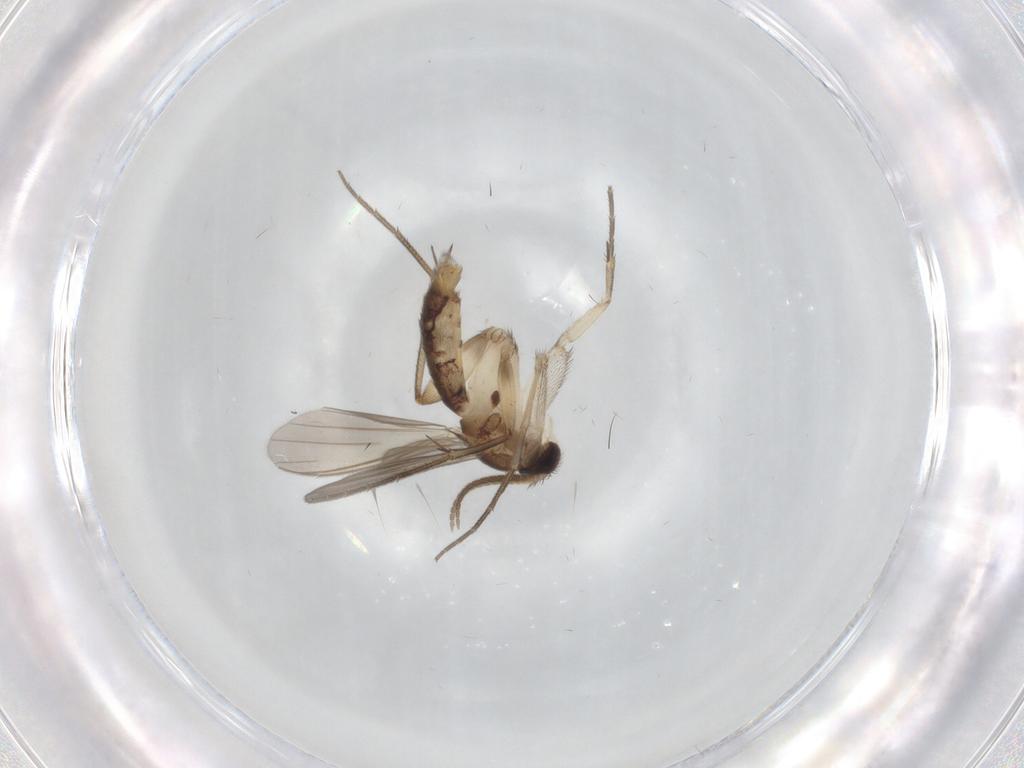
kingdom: Animalia
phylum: Arthropoda
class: Insecta
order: Diptera
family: Mycetophilidae
